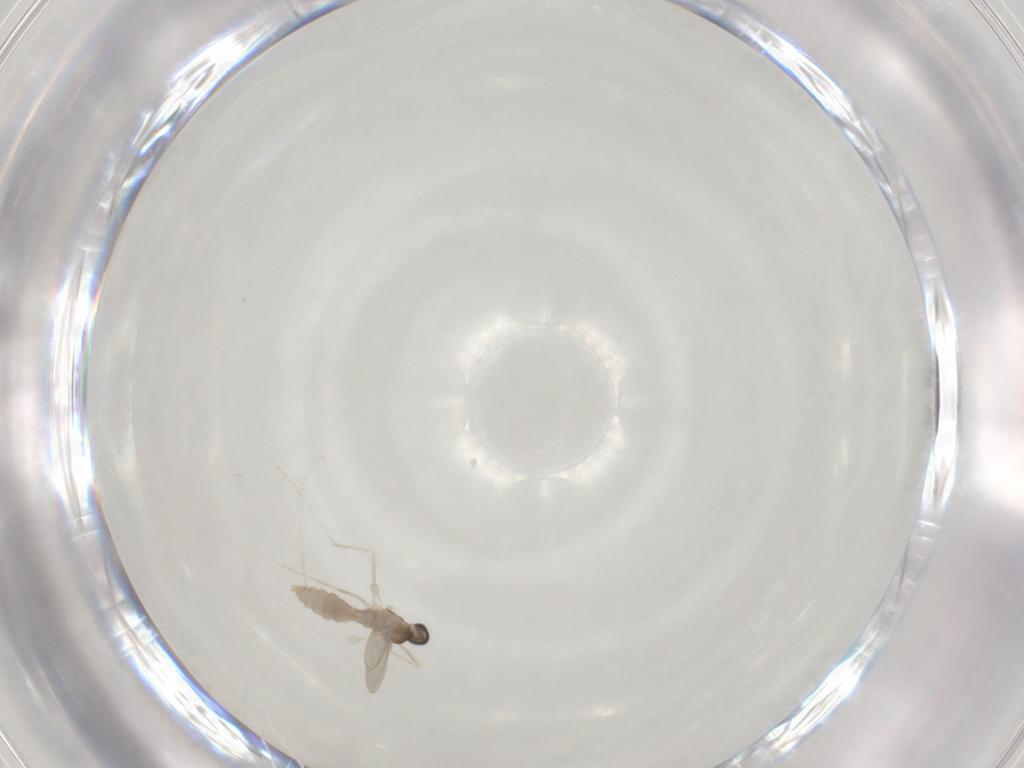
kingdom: Animalia
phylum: Arthropoda
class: Insecta
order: Diptera
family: Cecidomyiidae
